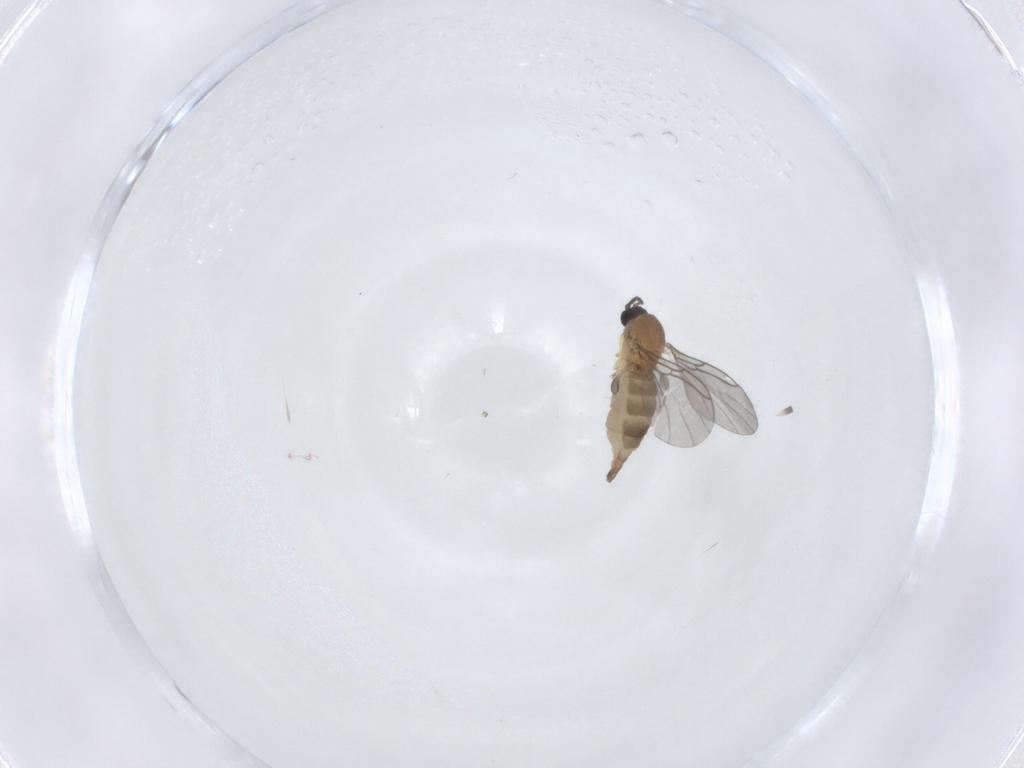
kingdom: Animalia
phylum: Arthropoda
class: Insecta
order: Diptera
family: Sciaridae
